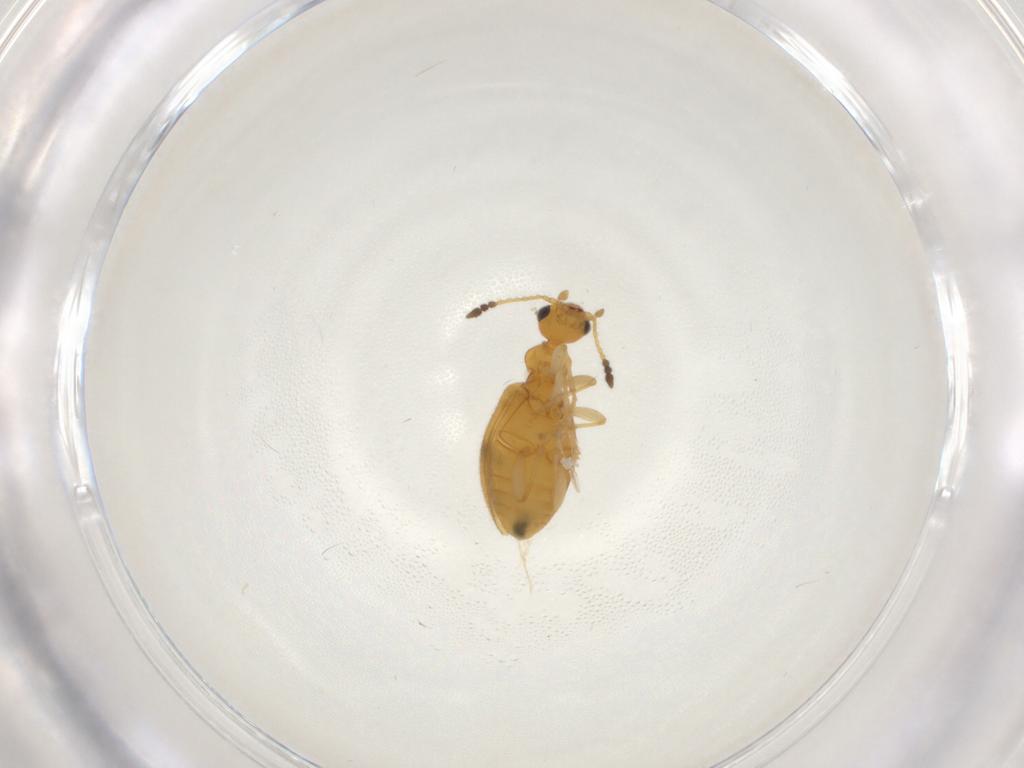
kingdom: Animalia
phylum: Arthropoda
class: Insecta
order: Coleoptera
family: Anthicidae
